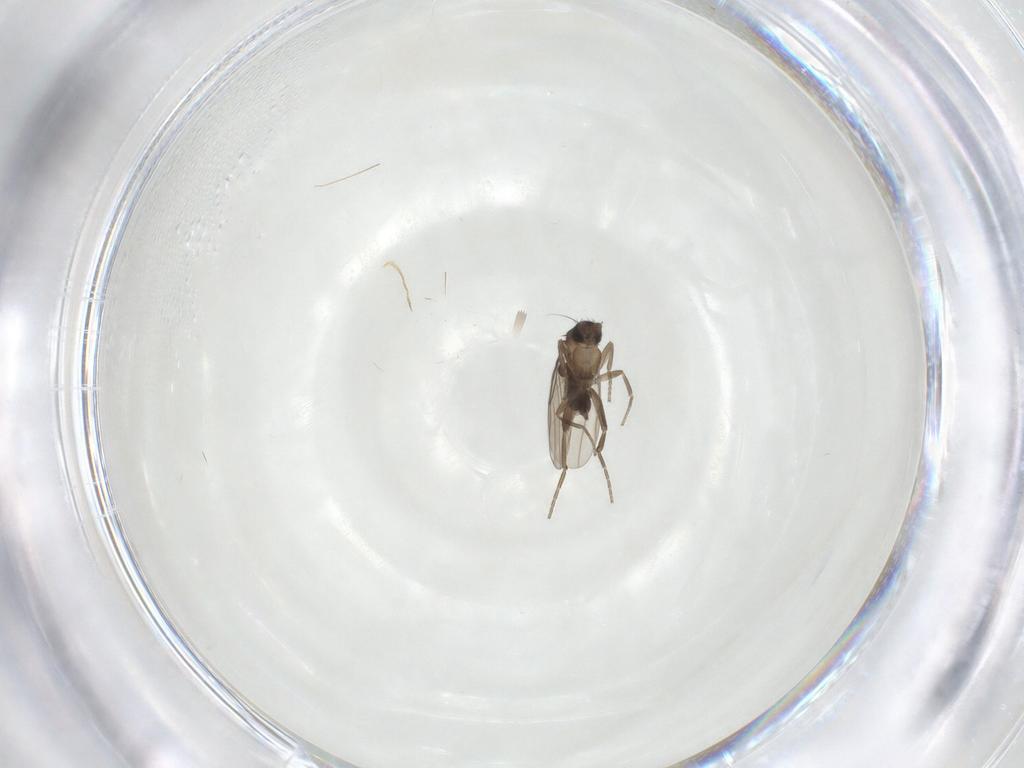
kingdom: Animalia
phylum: Arthropoda
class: Insecta
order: Diptera
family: Phoridae
